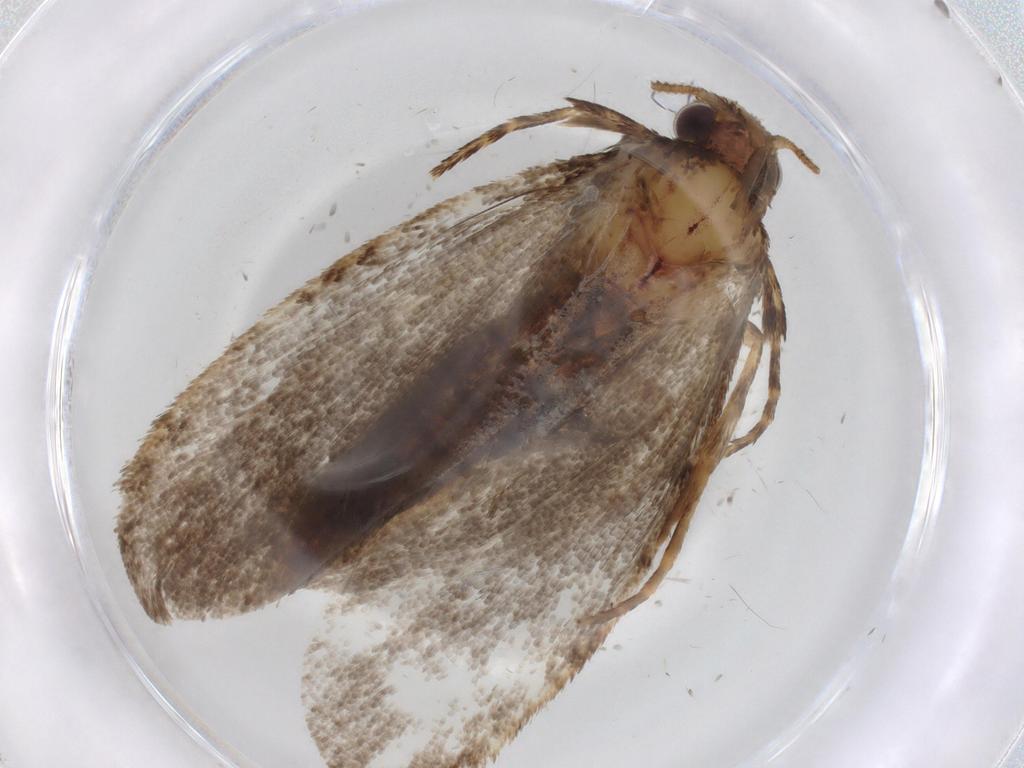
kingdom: Animalia
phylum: Arthropoda
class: Insecta
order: Lepidoptera
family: Tineidae
